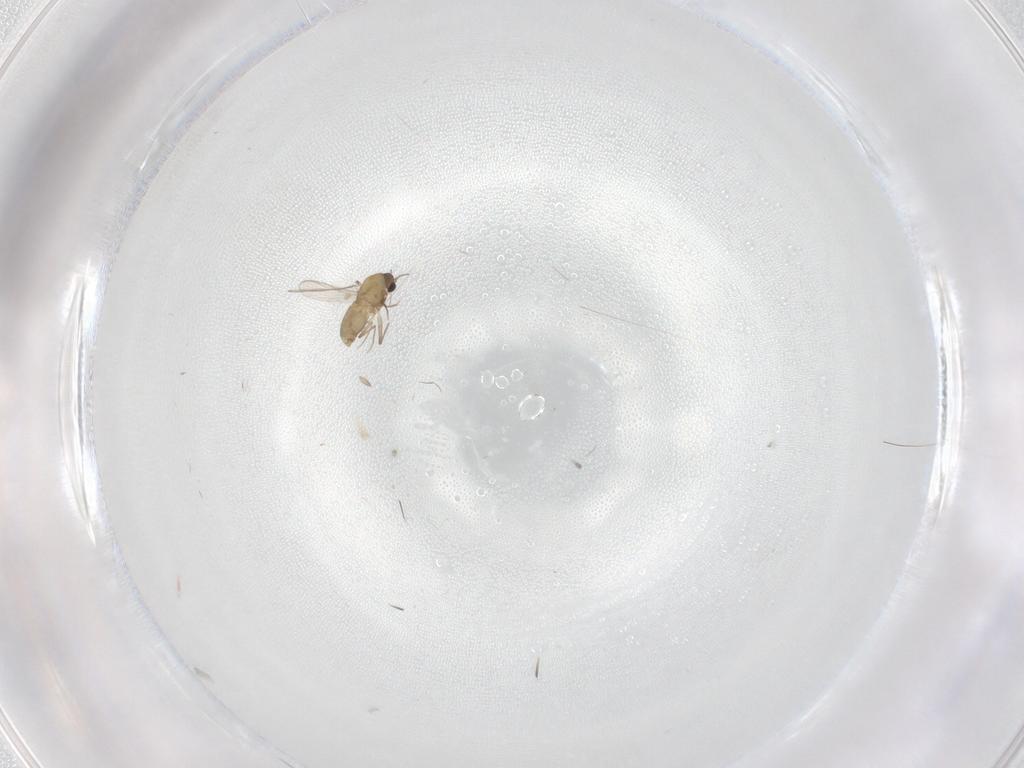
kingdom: Animalia
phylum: Arthropoda
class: Insecta
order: Diptera
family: Chironomidae
